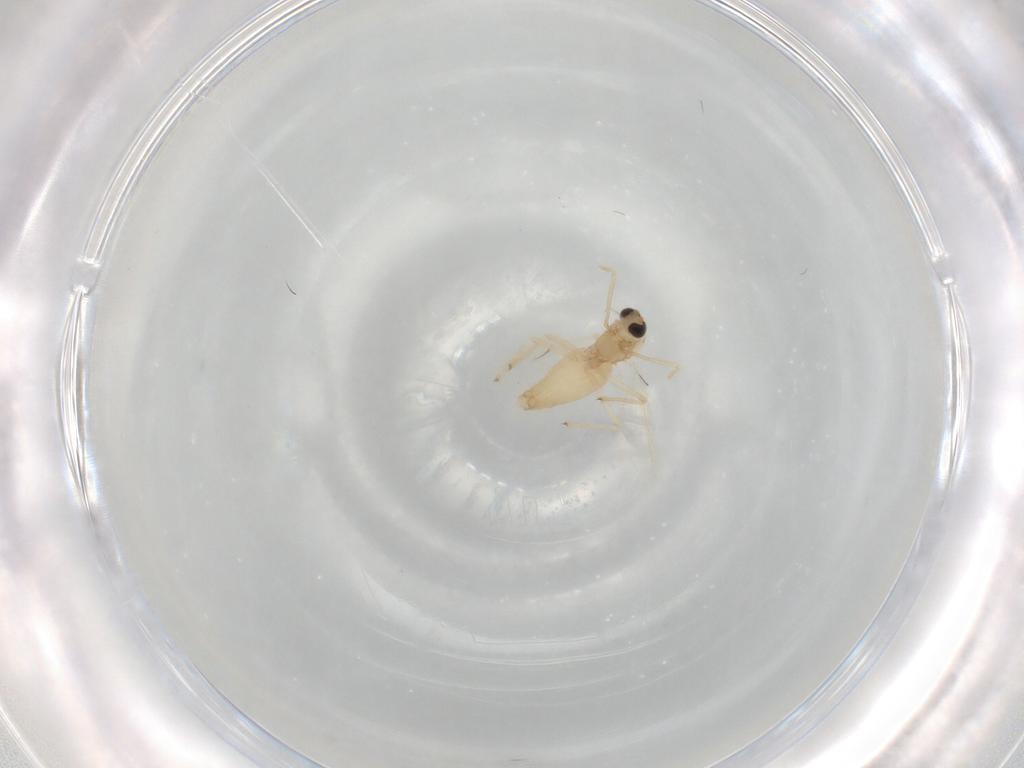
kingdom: Animalia
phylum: Arthropoda
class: Insecta
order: Diptera
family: Chironomidae
